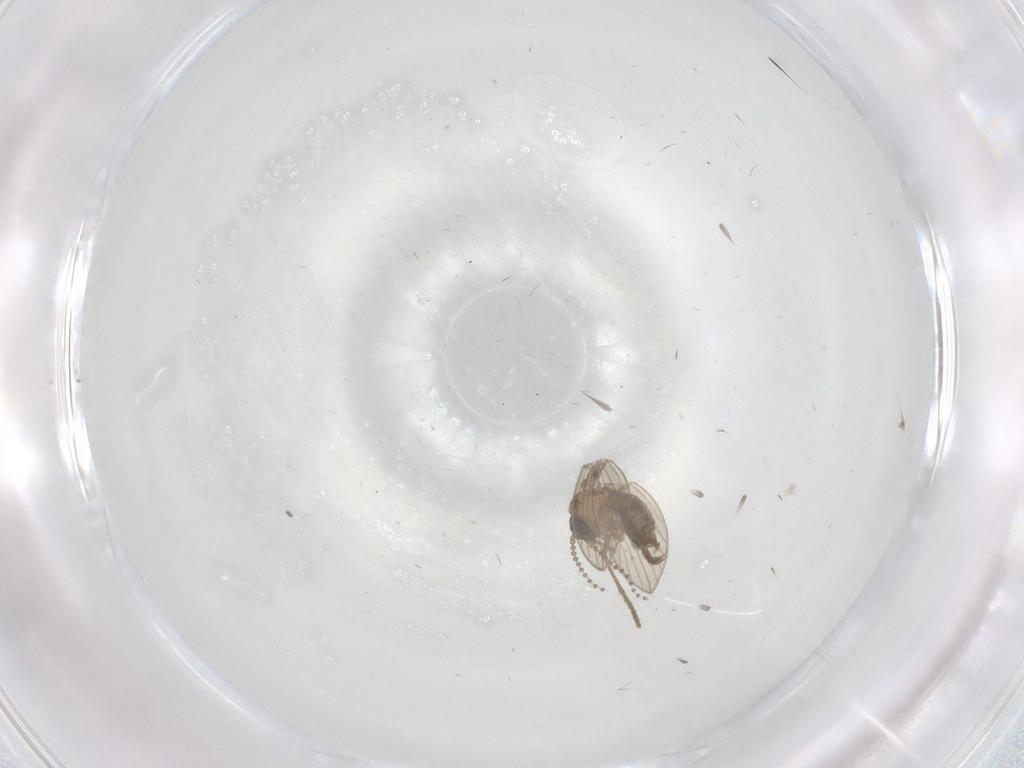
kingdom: Animalia
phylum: Arthropoda
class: Insecta
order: Diptera
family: Psychodidae
